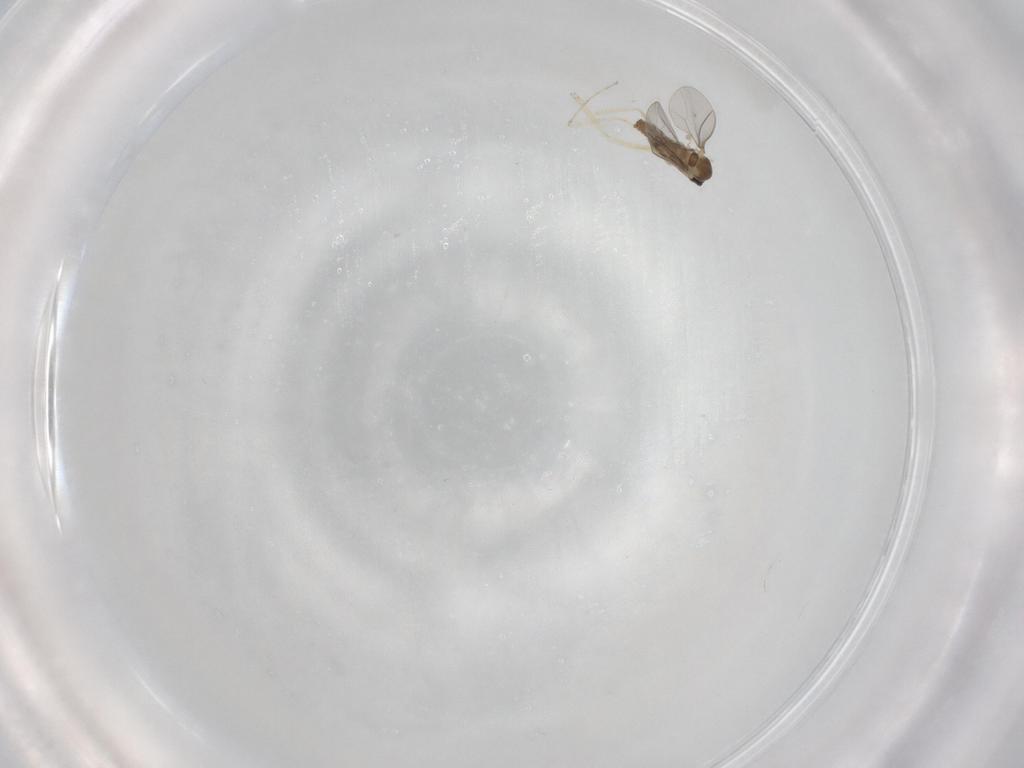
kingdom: Animalia
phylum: Arthropoda
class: Insecta
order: Diptera
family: Cecidomyiidae
